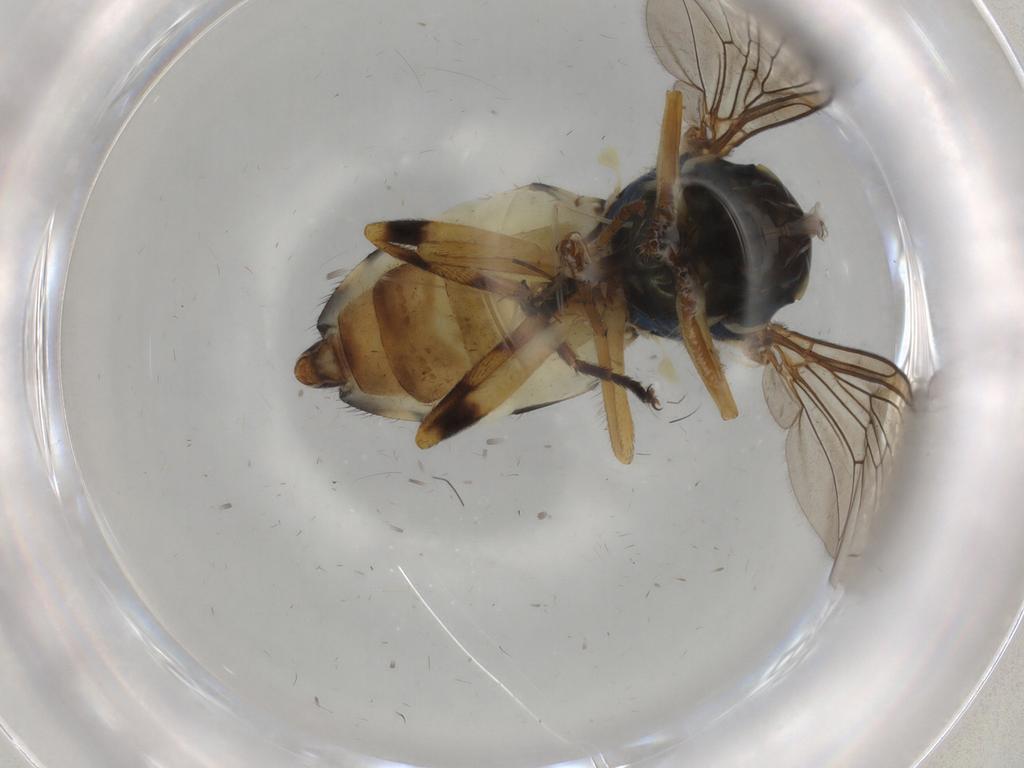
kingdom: Animalia
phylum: Arthropoda
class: Insecta
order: Diptera
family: Syrphidae
